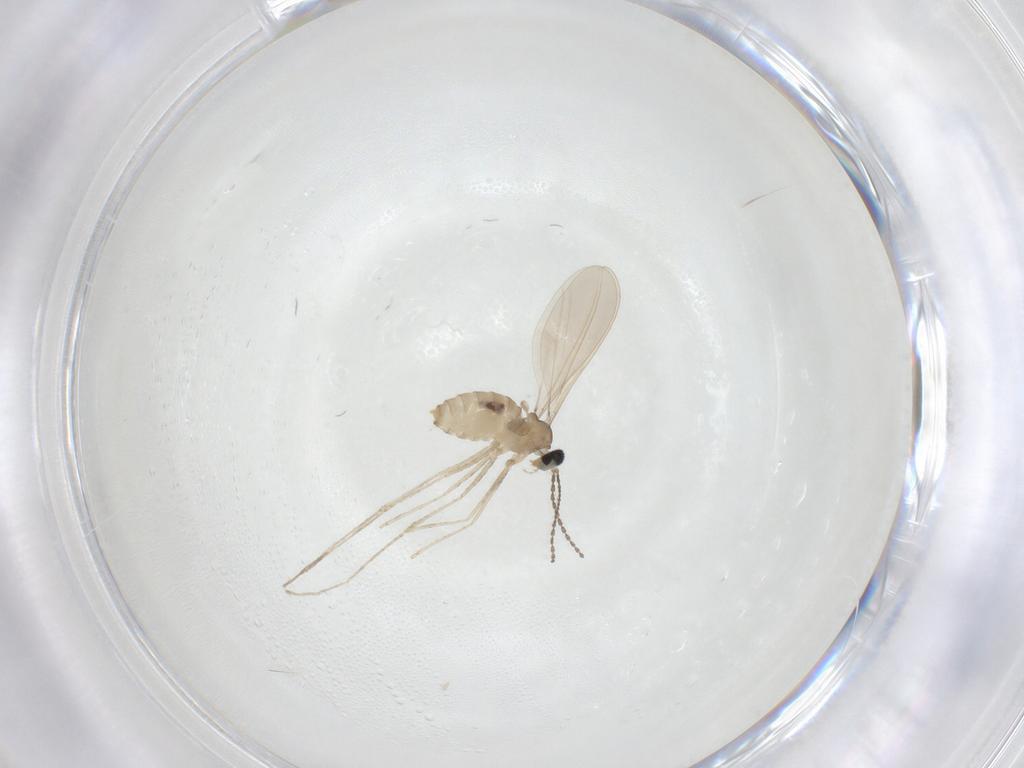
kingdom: Animalia
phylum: Arthropoda
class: Insecta
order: Diptera
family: Cecidomyiidae
